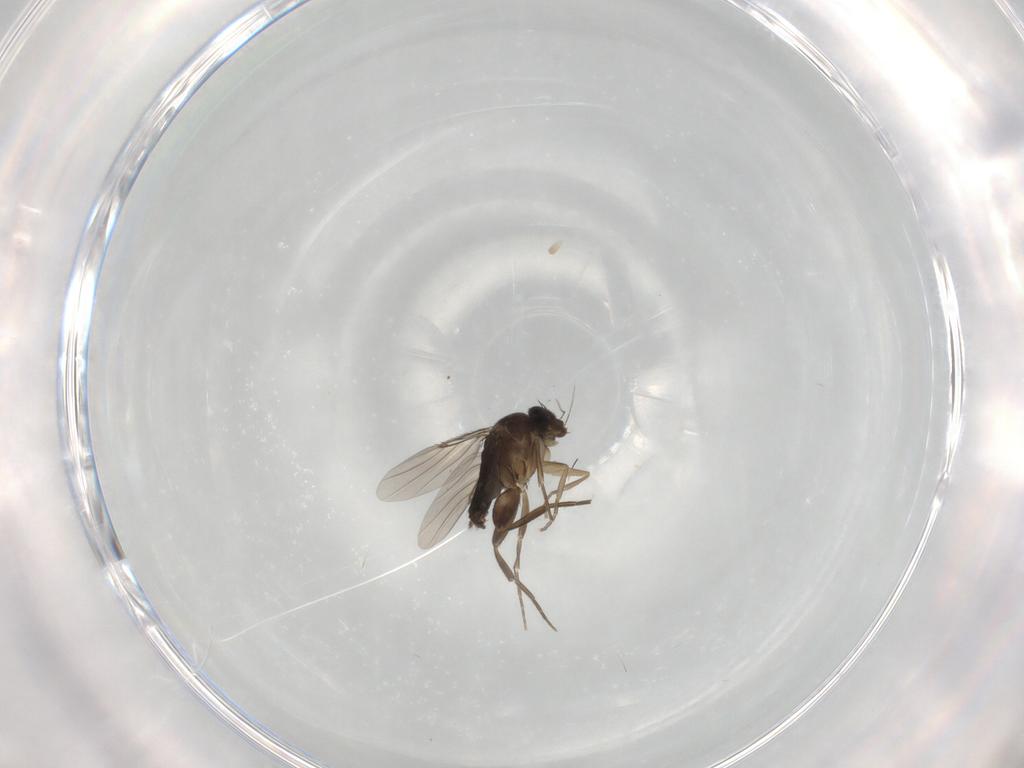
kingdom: Animalia
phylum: Arthropoda
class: Insecta
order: Diptera
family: Phoridae
